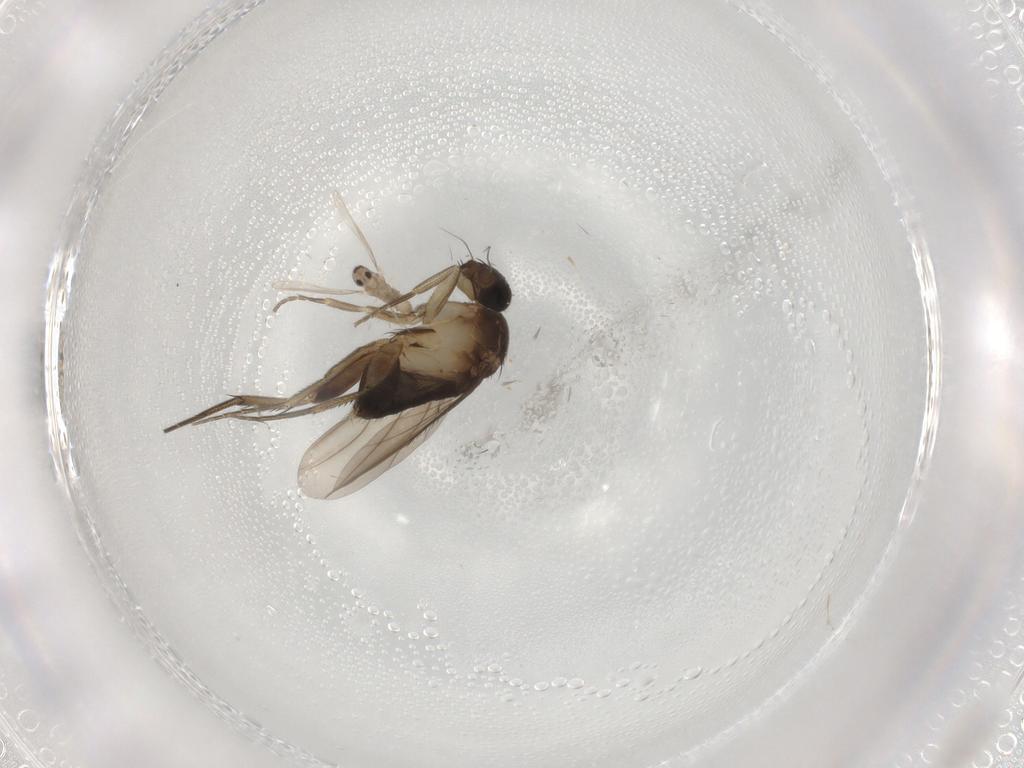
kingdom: Animalia
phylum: Arthropoda
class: Insecta
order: Diptera
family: Phoridae
